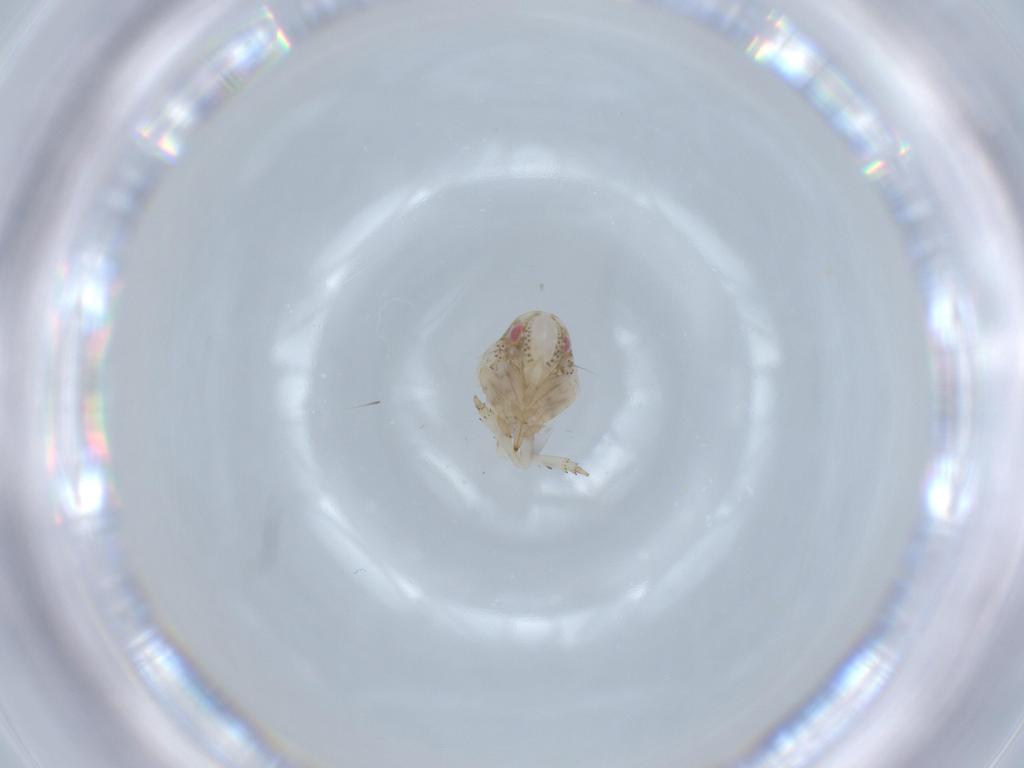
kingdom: Animalia
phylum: Arthropoda
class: Insecta
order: Hemiptera
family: Acanaloniidae
